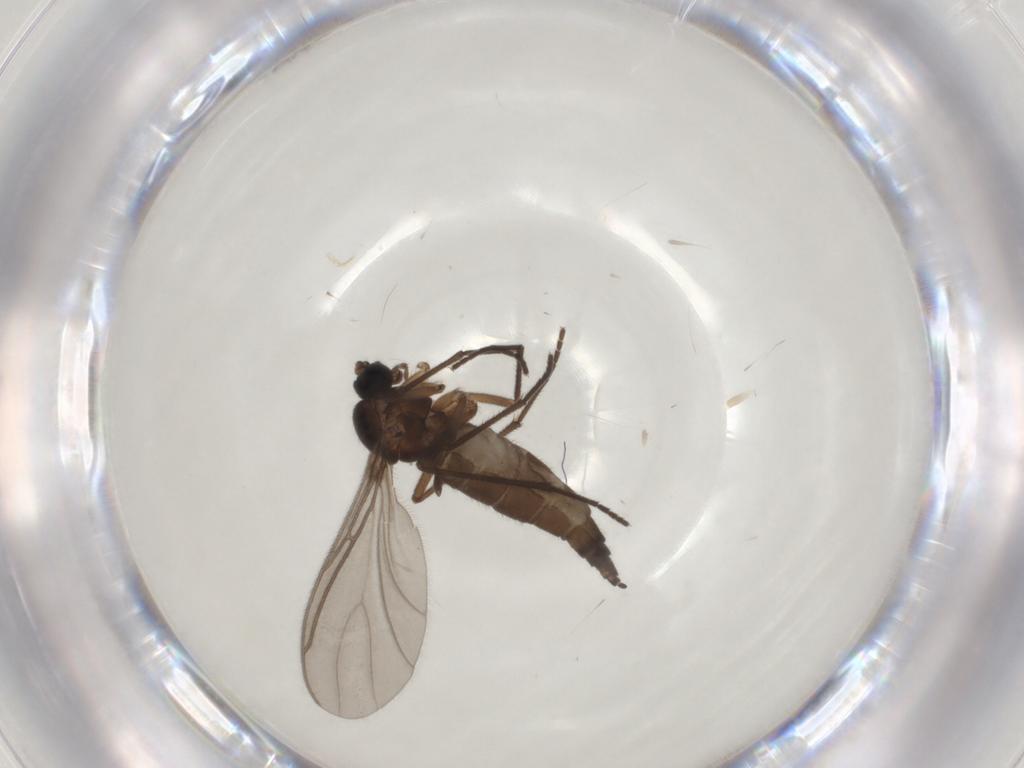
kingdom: Animalia
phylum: Arthropoda
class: Insecta
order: Diptera
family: Sciaridae
